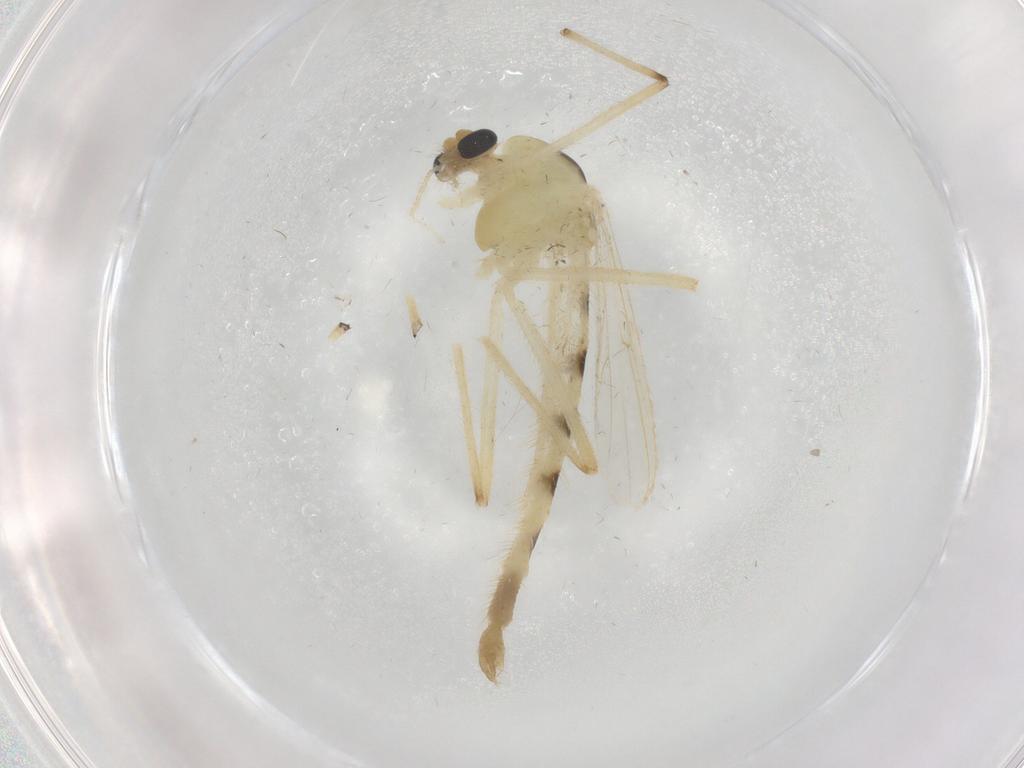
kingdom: Animalia
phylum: Arthropoda
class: Insecta
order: Diptera
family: Chironomidae
